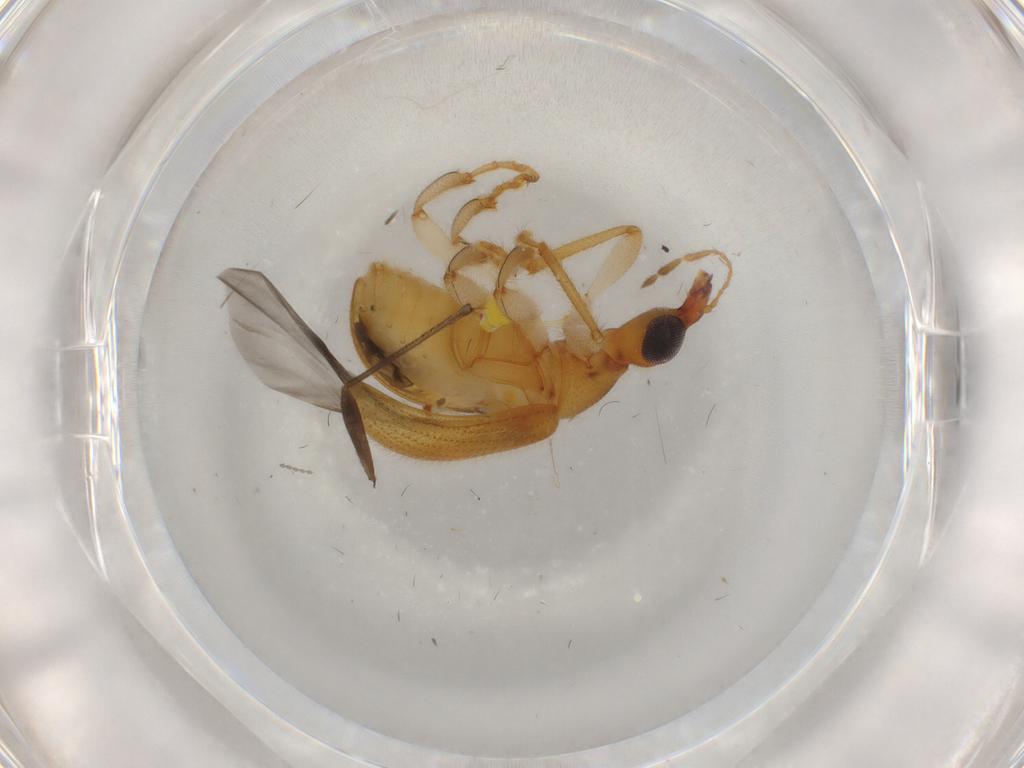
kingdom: Animalia
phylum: Arthropoda
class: Insecta
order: Coleoptera
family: Attelabidae
